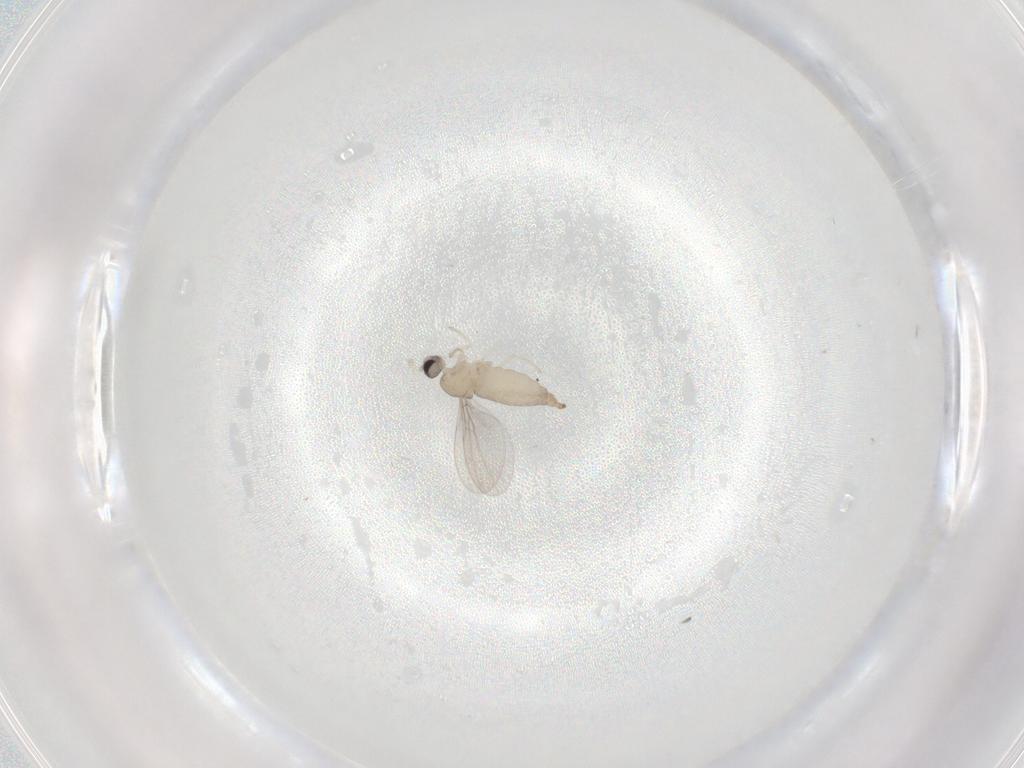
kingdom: Animalia
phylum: Arthropoda
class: Insecta
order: Diptera
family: Cecidomyiidae
